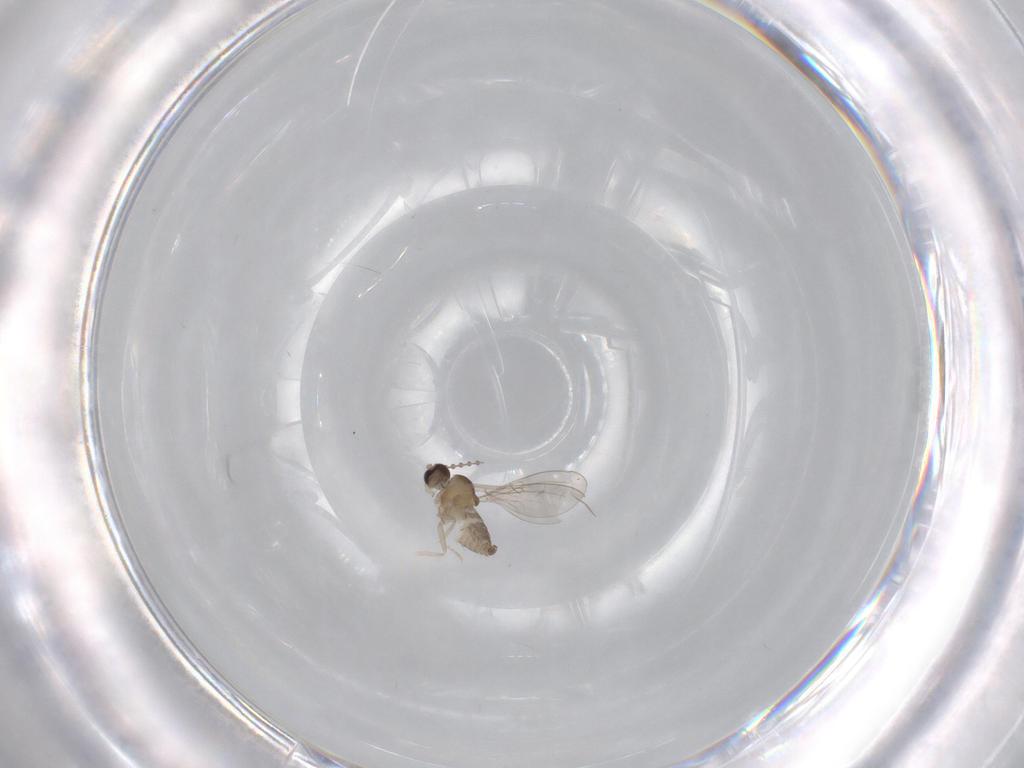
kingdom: Animalia
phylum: Arthropoda
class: Insecta
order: Diptera
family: Cecidomyiidae
